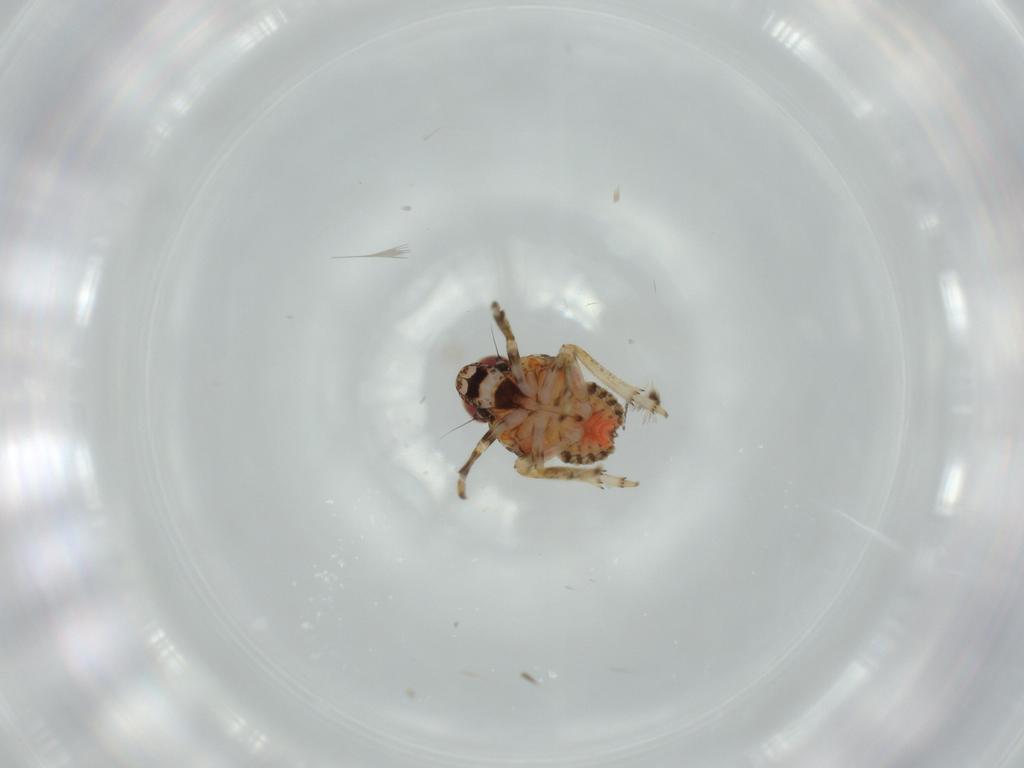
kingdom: Animalia
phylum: Arthropoda
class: Insecta
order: Hemiptera
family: Issidae
